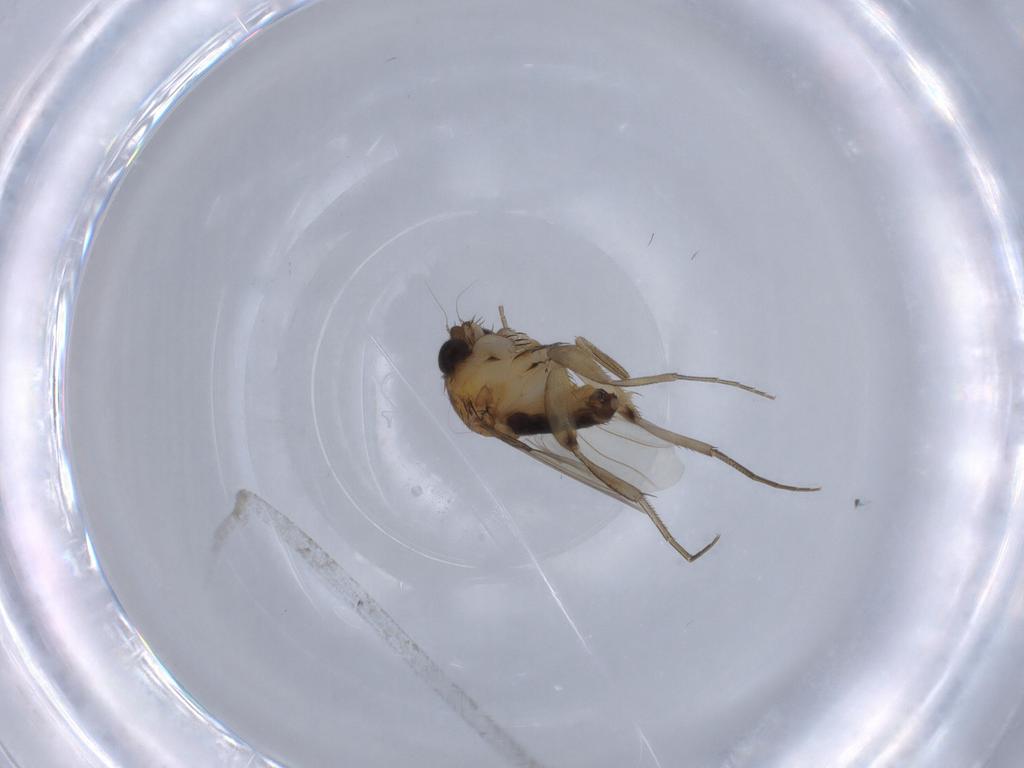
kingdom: Animalia
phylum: Arthropoda
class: Insecta
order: Diptera
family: Phoridae
